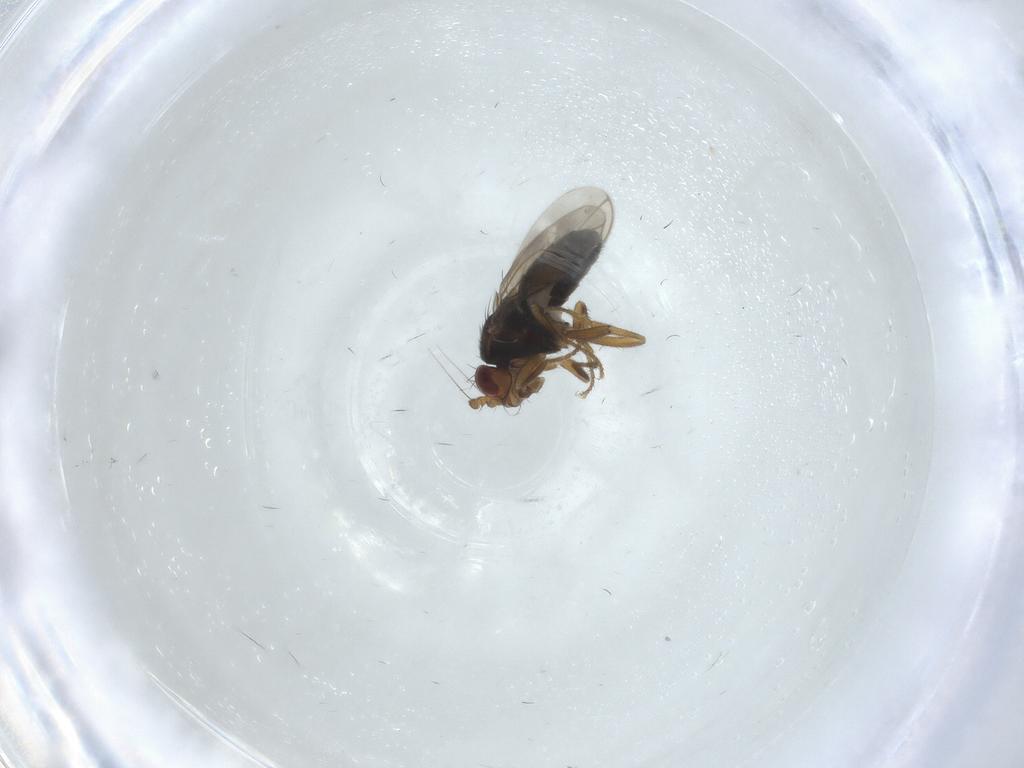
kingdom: Animalia
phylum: Arthropoda
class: Insecta
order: Diptera
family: Sphaeroceridae
